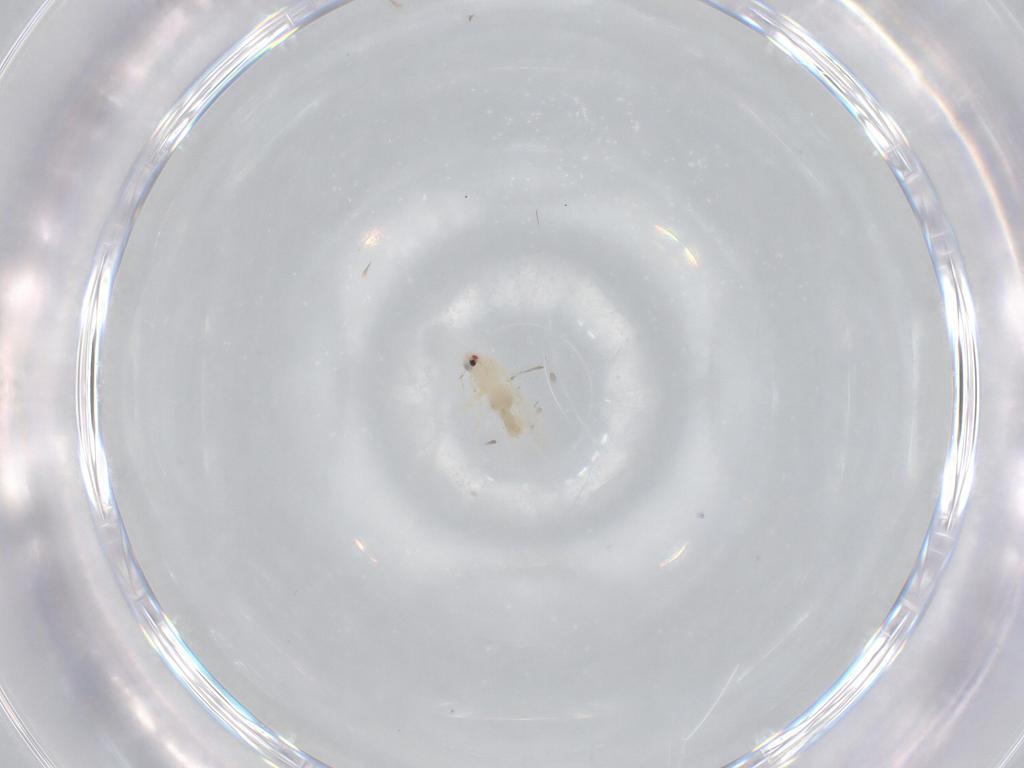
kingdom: Animalia
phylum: Arthropoda
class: Insecta
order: Hemiptera
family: Aleyrodidae
